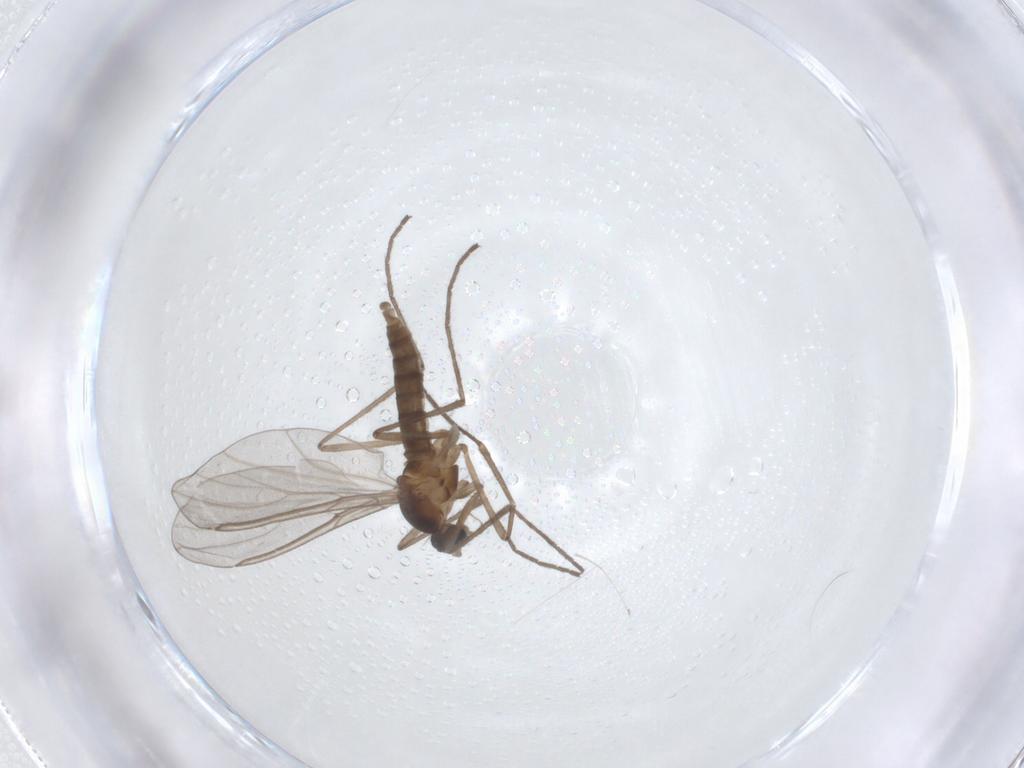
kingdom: Animalia
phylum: Arthropoda
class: Insecta
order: Diptera
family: Cecidomyiidae
